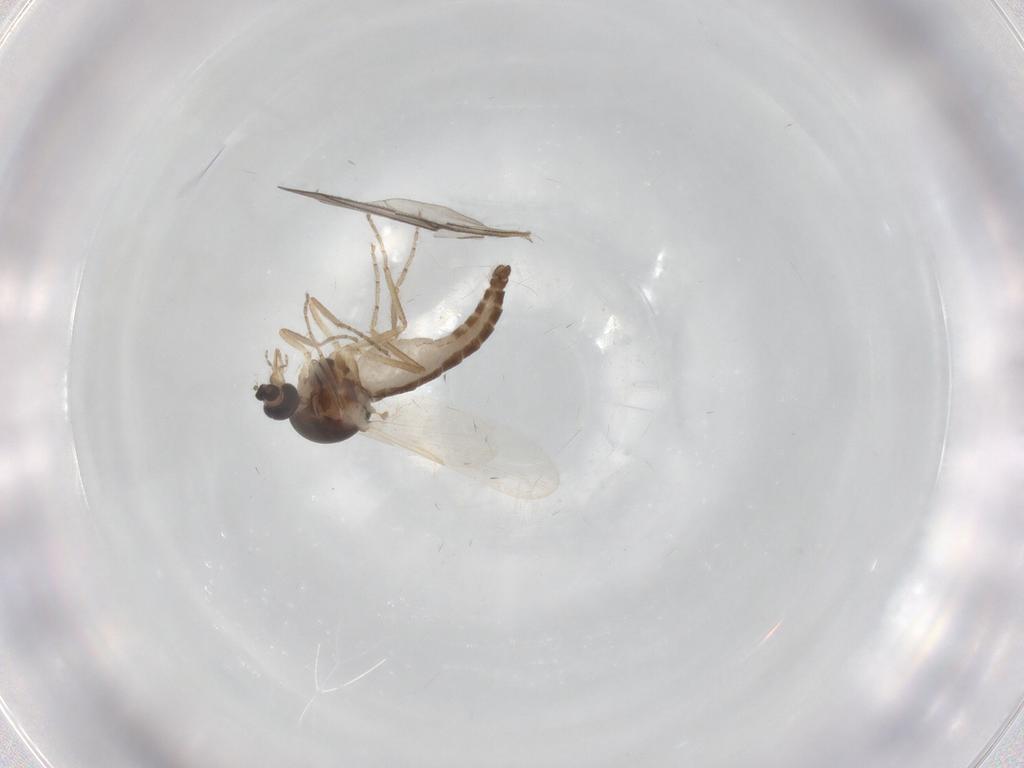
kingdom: Animalia
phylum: Arthropoda
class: Insecta
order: Diptera
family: Ceratopogonidae
